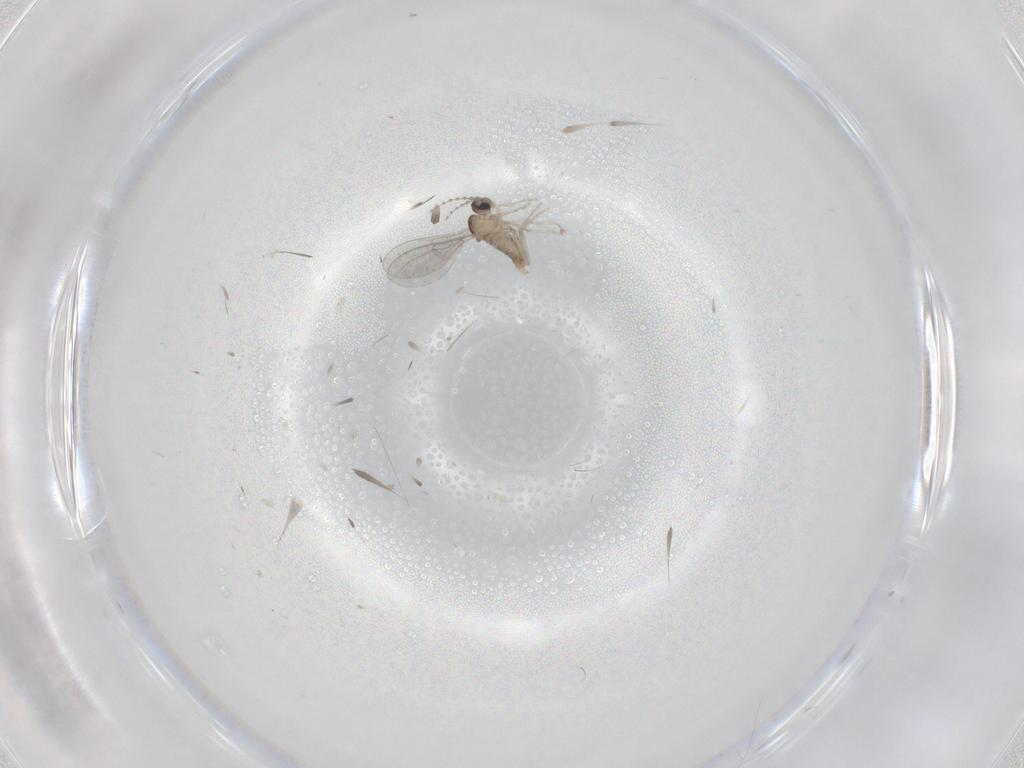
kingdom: Animalia
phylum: Arthropoda
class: Insecta
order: Diptera
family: Cecidomyiidae
